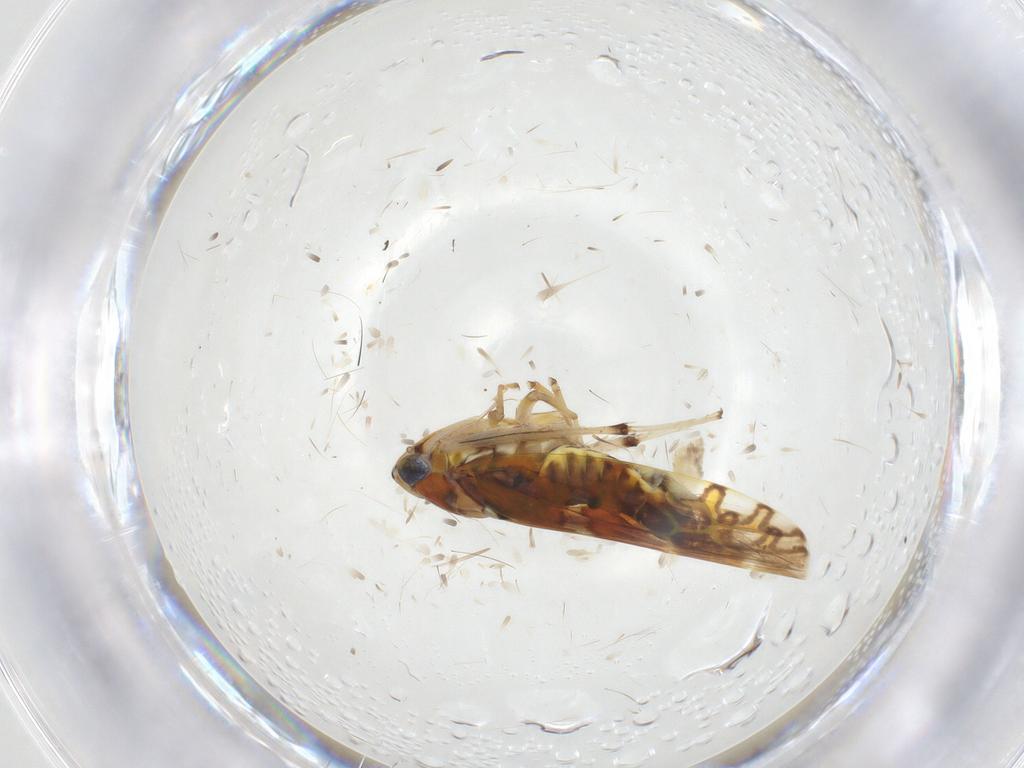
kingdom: Animalia
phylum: Arthropoda
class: Insecta
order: Hemiptera
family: Cicadellidae
